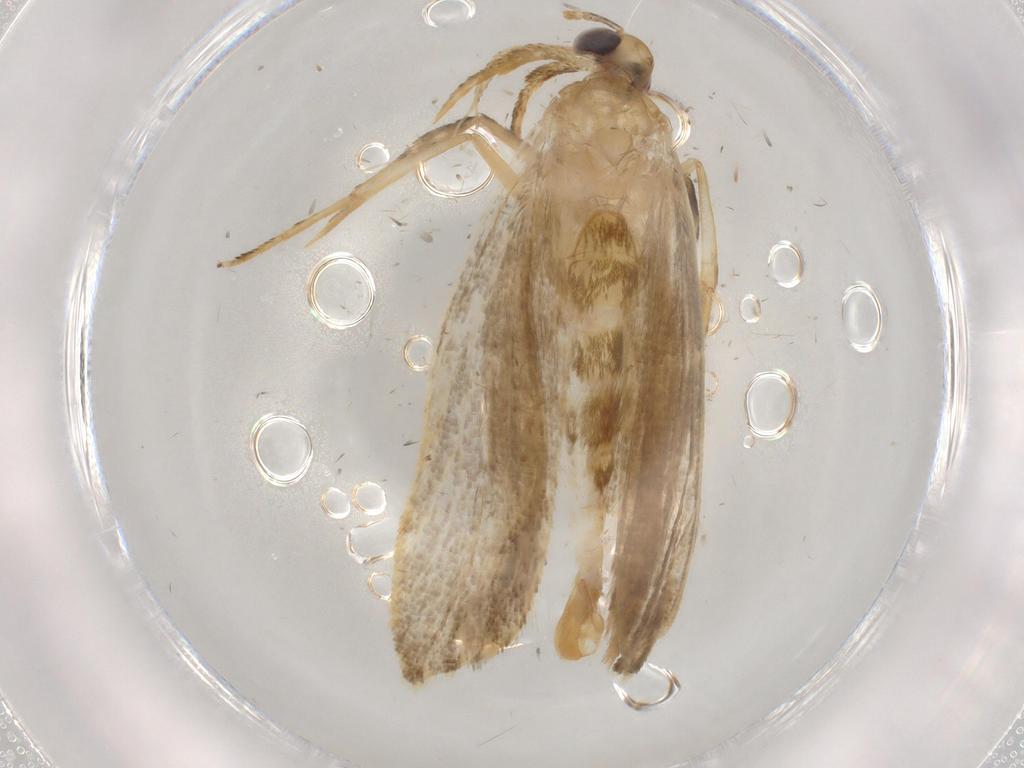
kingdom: Animalia
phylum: Arthropoda
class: Insecta
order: Lepidoptera
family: Autostichidae
